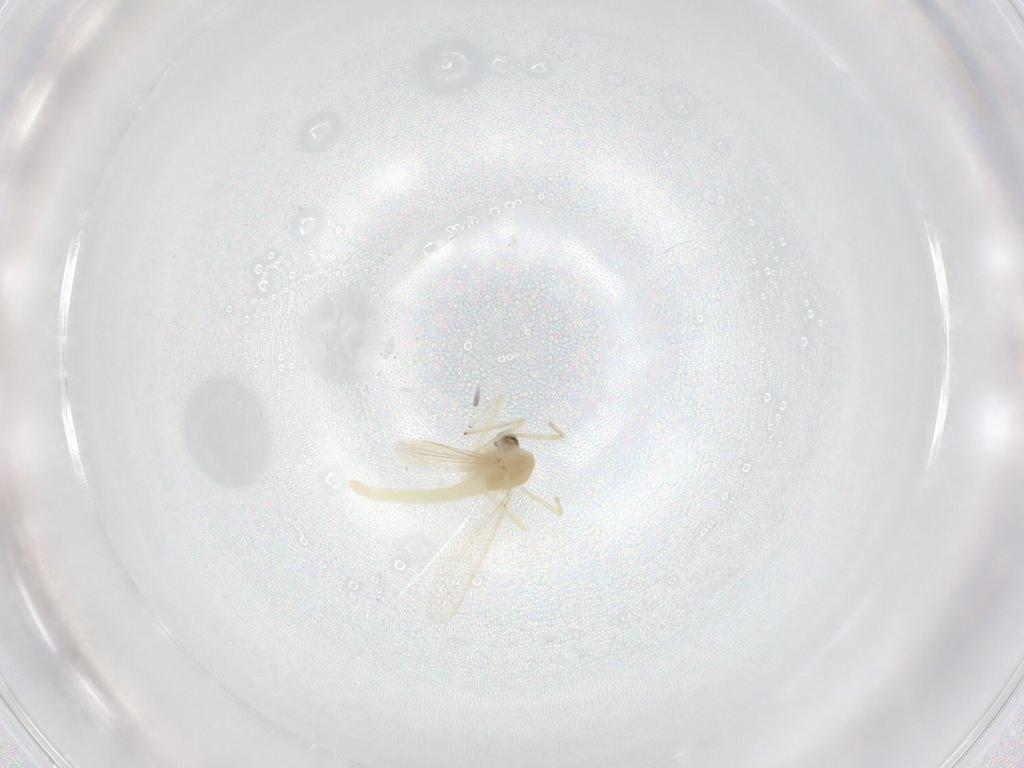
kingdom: Animalia
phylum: Arthropoda
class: Insecta
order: Diptera
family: Chironomidae
